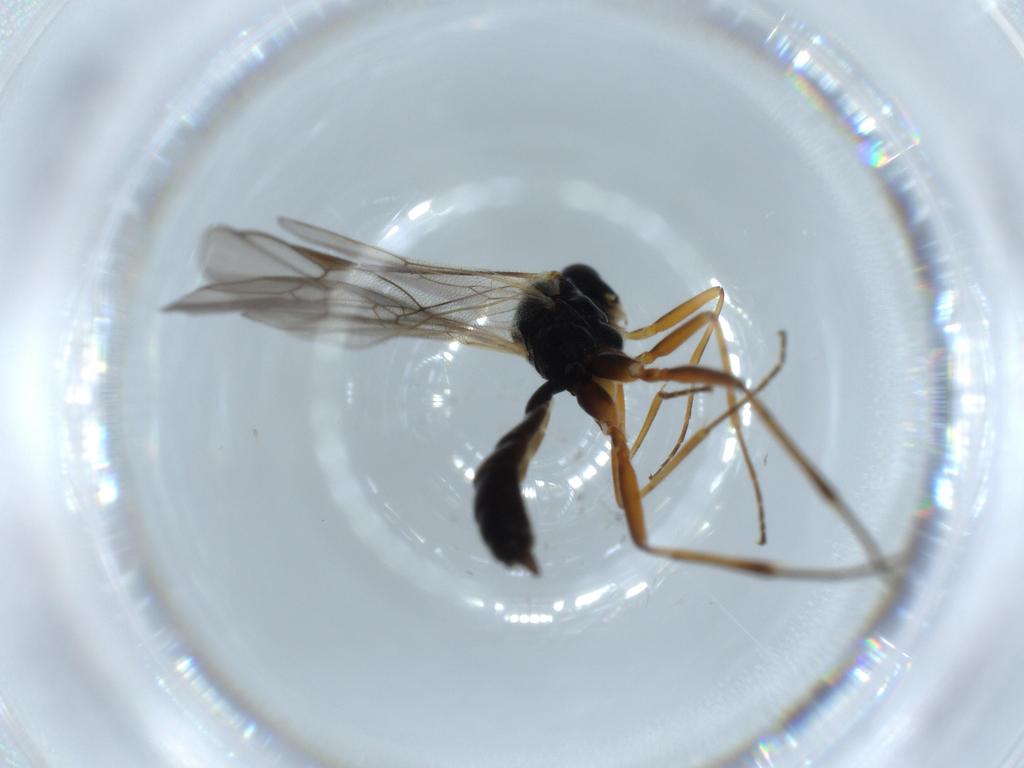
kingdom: Animalia
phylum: Arthropoda
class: Insecta
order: Hymenoptera
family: Ichneumonidae
